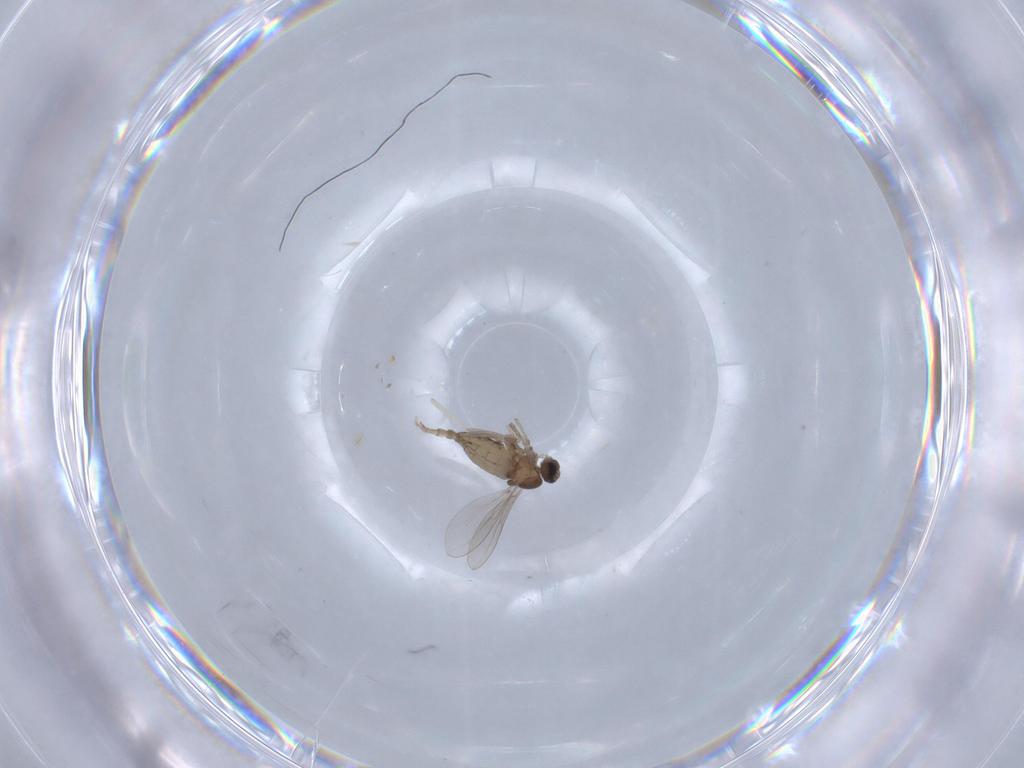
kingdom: Animalia
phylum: Arthropoda
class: Insecta
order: Diptera
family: Cecidomyiidae
